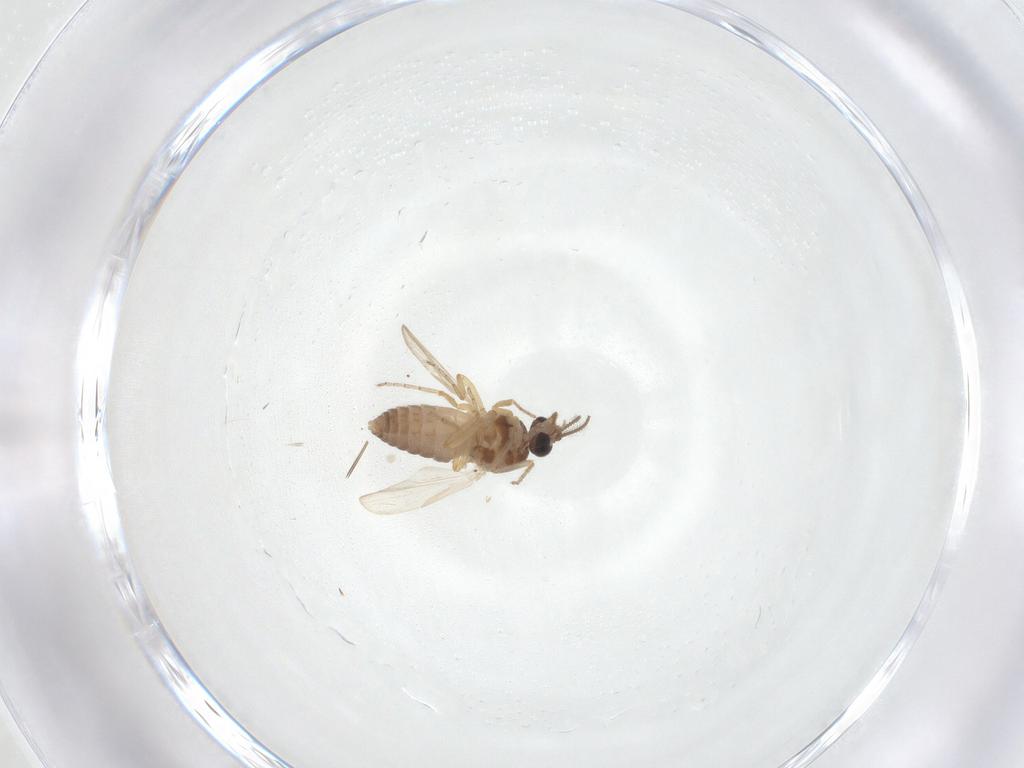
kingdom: Animalia
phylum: Arthropoda
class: Insecta
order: Diptera
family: Ceratopogonidae
